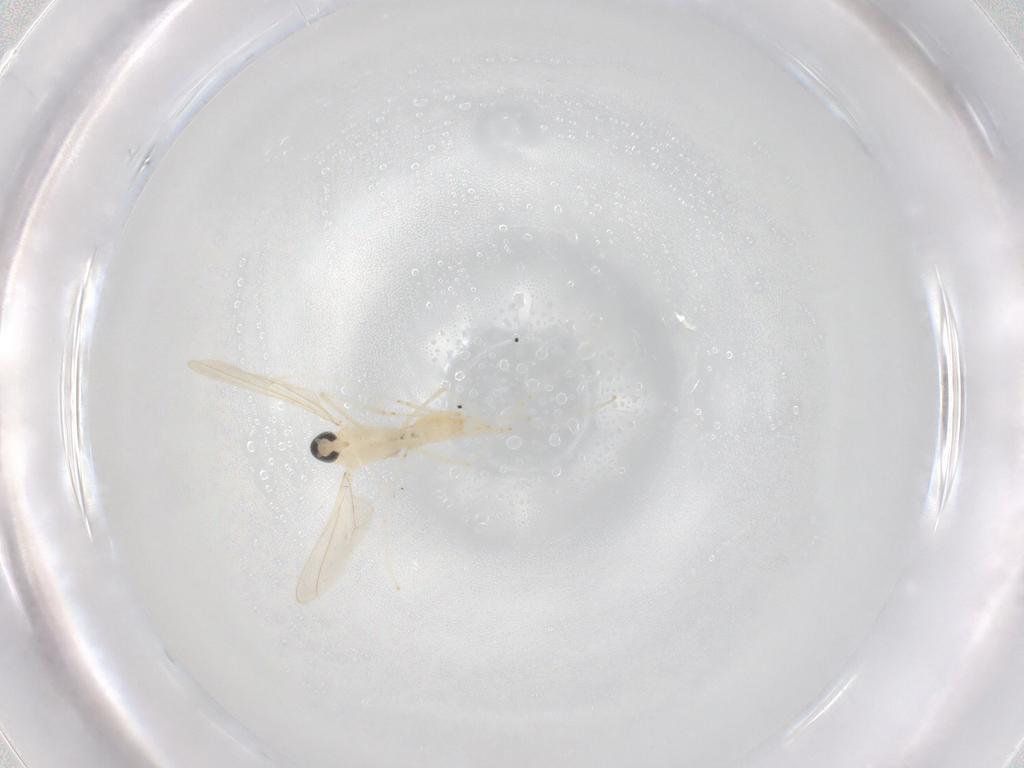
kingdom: Animalia
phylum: Arthropoda
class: Insecta
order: Diptera
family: Cecidomyiidae
